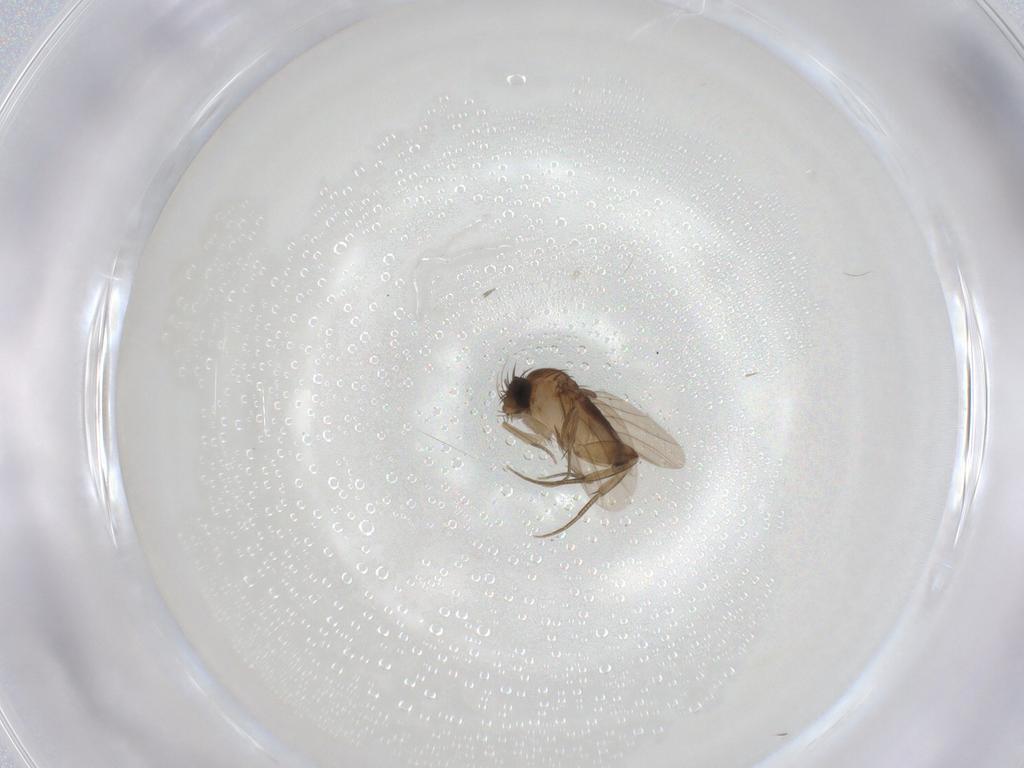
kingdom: Animalia
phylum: Arthropoda
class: Insecta
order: Diptera
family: Phoridae
